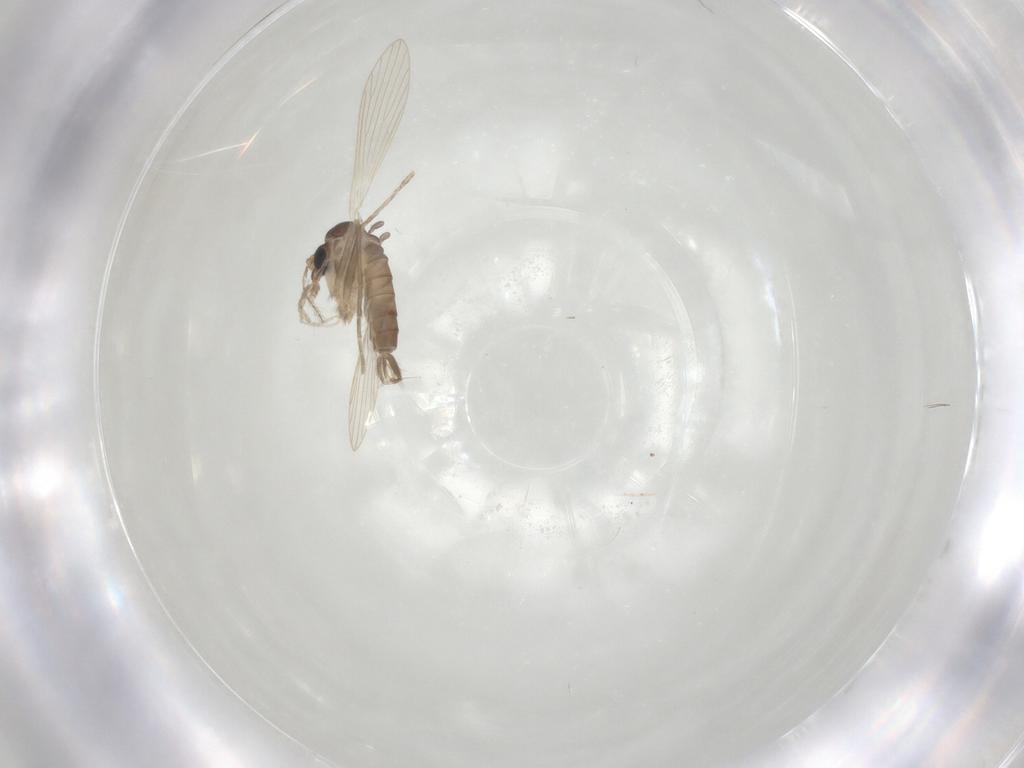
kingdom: Animalia
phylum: Arthropoda
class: Insecta
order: Diptera
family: Psychodidae
